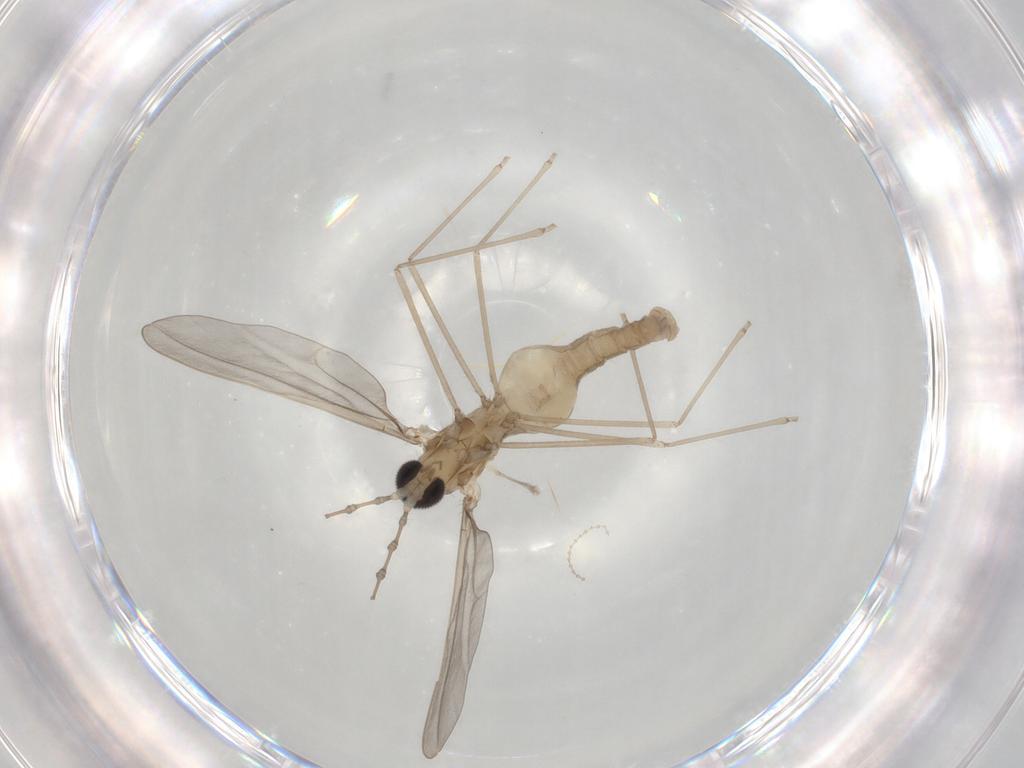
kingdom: Animalia
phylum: Arthropoda
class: Insecta
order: Diptera
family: Cecidomyiidae
